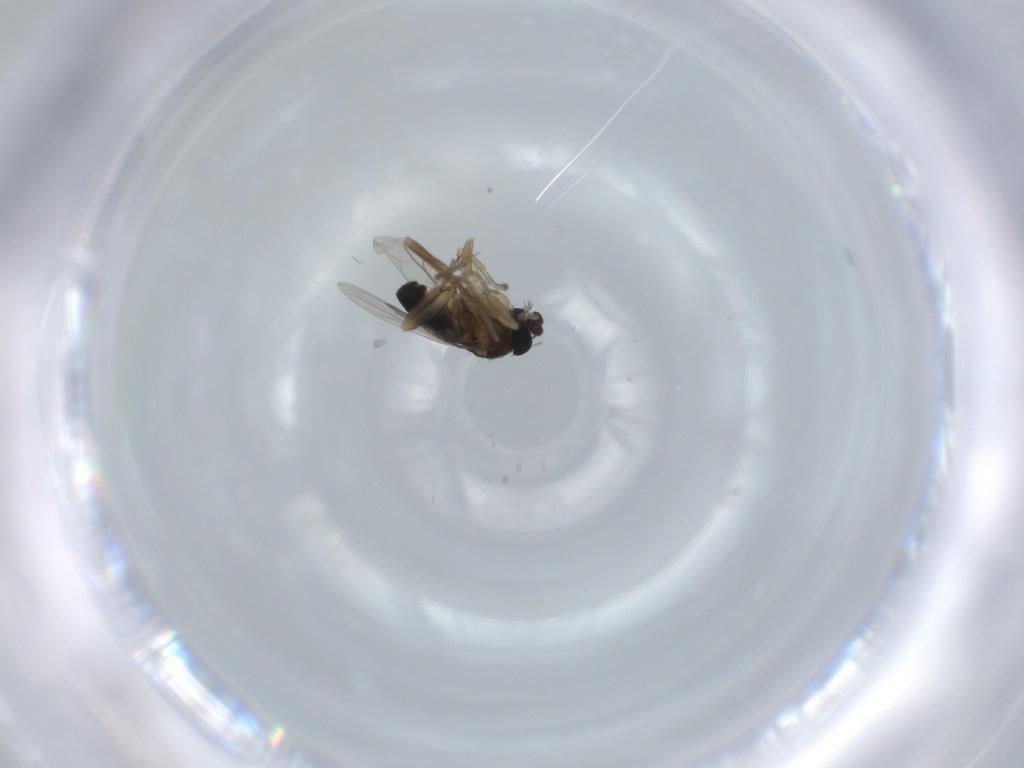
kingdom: Animalia
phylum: Arthropoda
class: Insecta
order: Diptera
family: Phoridae
